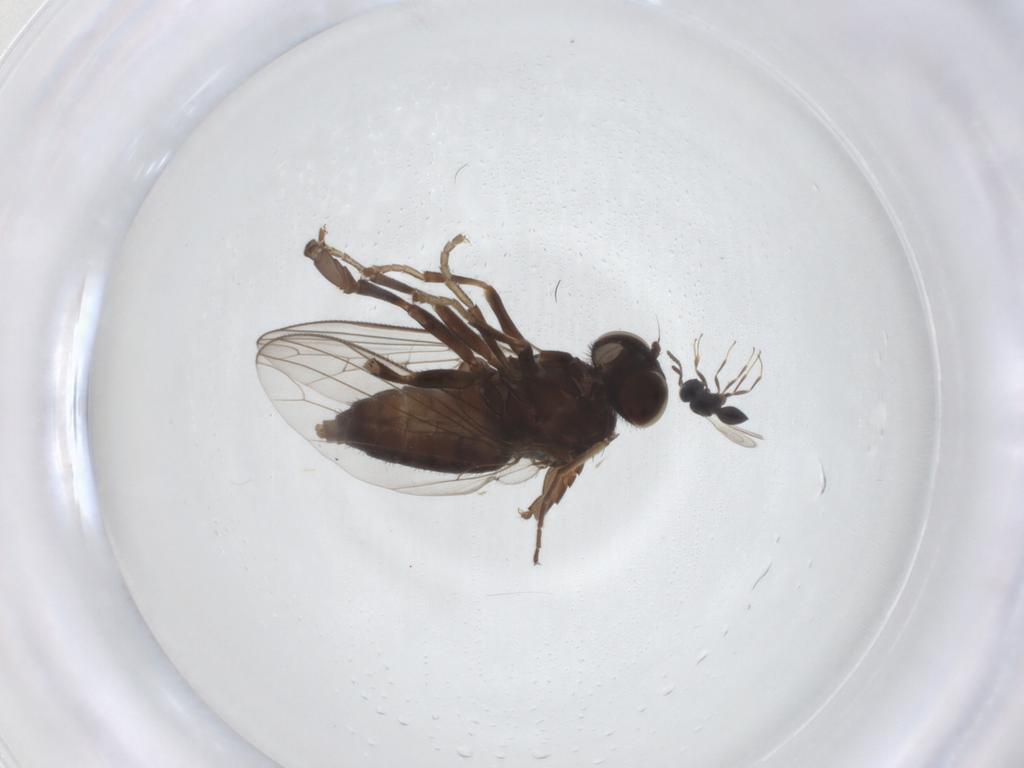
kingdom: Animalia
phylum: Arthropoda
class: Insecta
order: Diptera
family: Platypezidae
